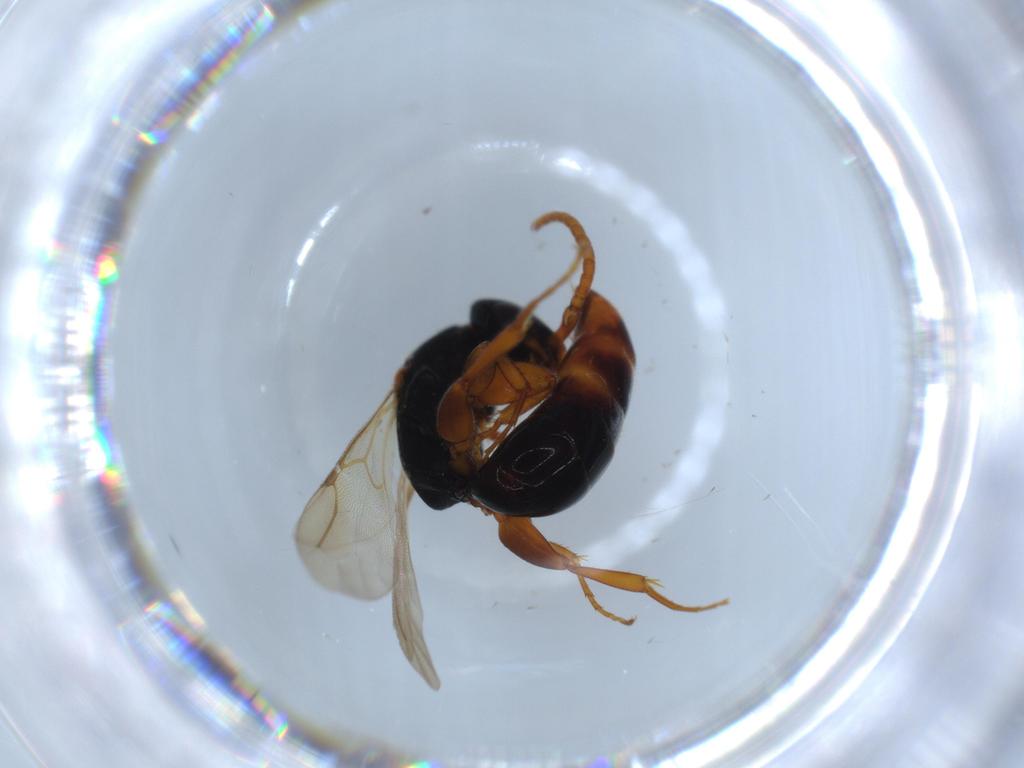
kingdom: Animalia
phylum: Arthropoda
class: Insecta
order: Hymenoptera
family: Bethylidae
